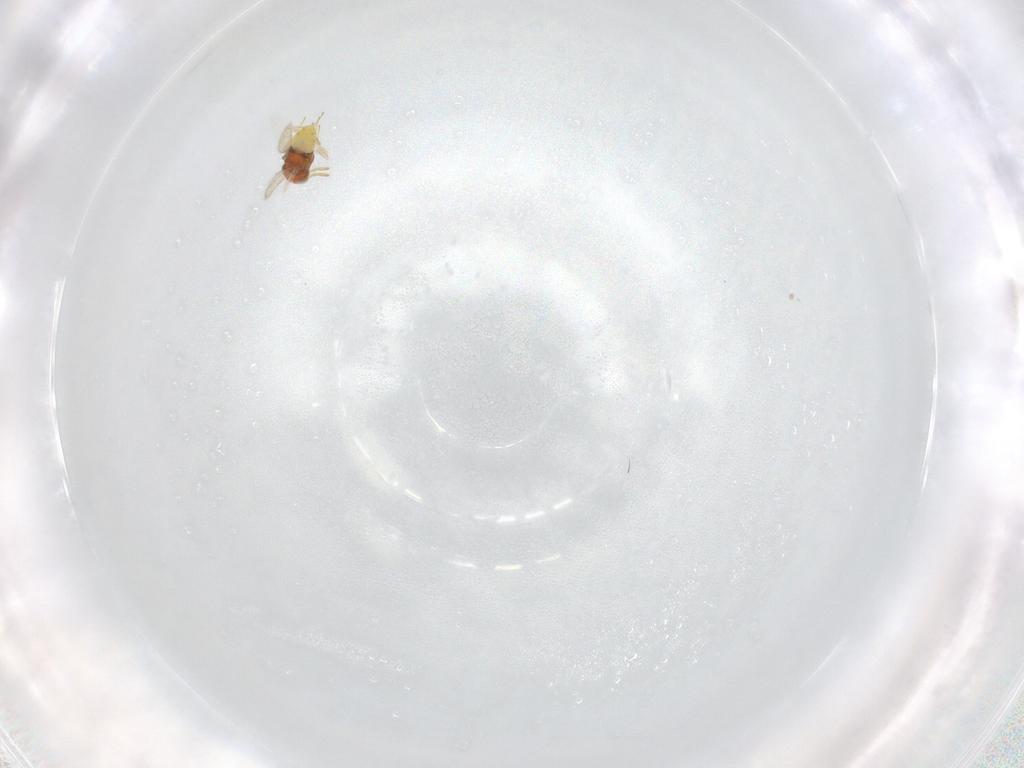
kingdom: Animalia
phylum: Arthropoda
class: Insecta
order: Hymenoptera
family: Aphelinidae
